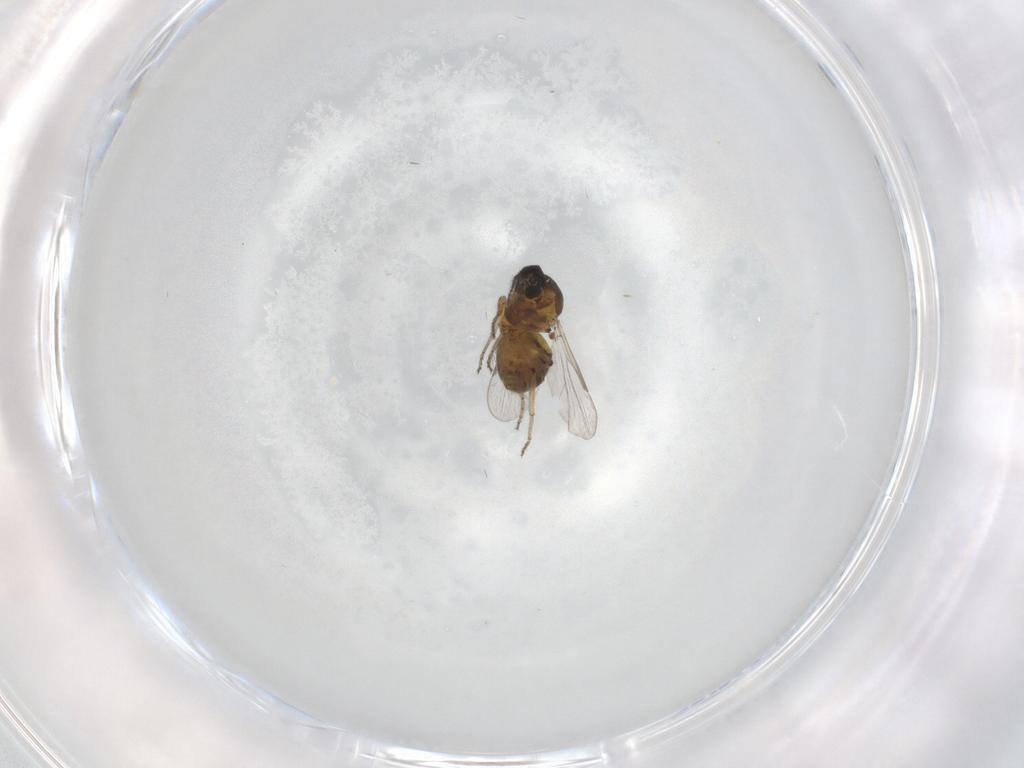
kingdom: Animalia
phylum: Arthropoda
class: Insecta
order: Diptera
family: Ceratopogonidae
